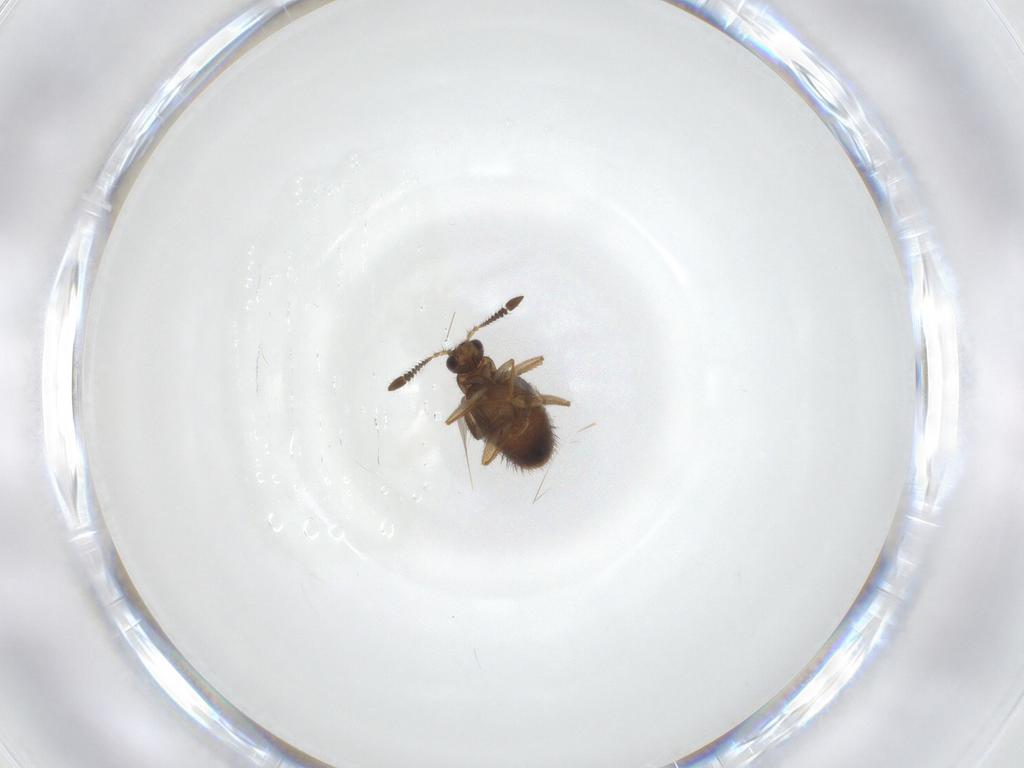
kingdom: Animalia
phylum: Arthropoda
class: Insecta
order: Coleoptera
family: Staphylinidae
